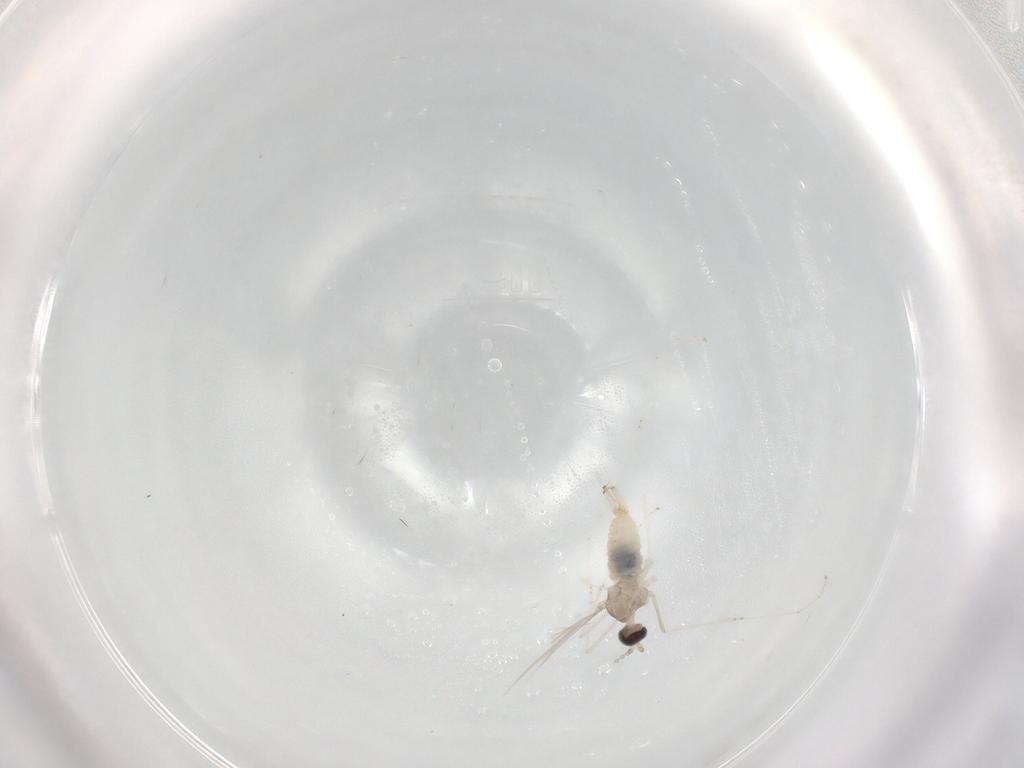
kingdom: Animalia
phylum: Arthropoda
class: Insecta
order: Diptera
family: Cecidomyiidae
